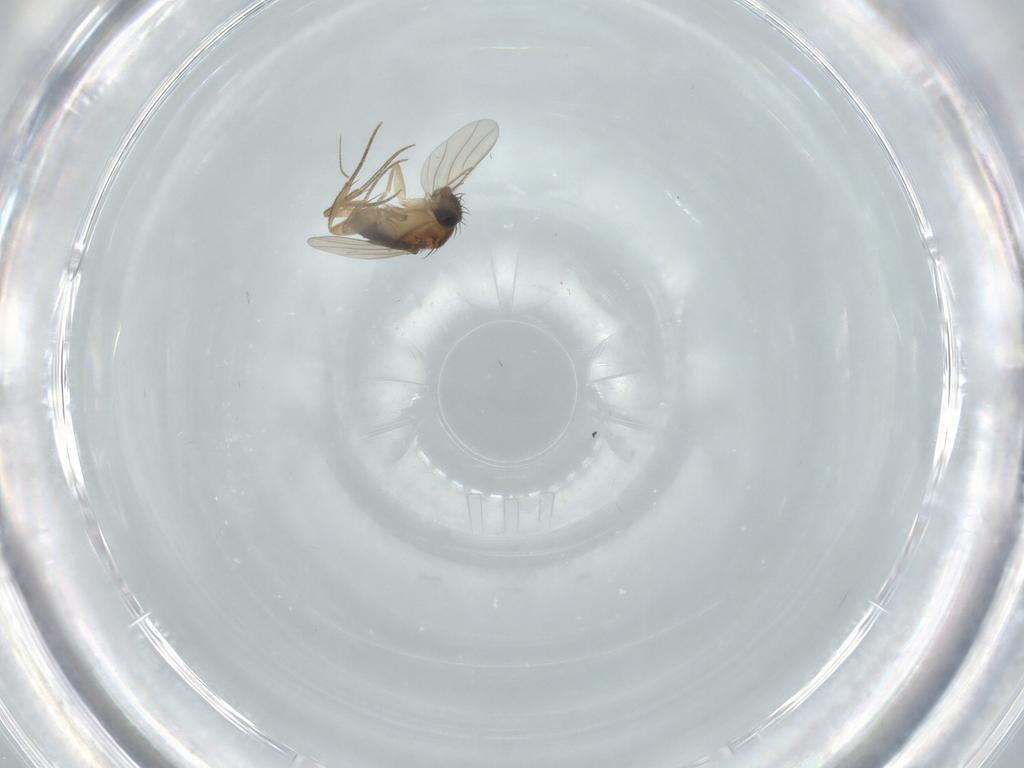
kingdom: Animalia
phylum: Arthropoda
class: Insecta
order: Diptera
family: Phoridae
